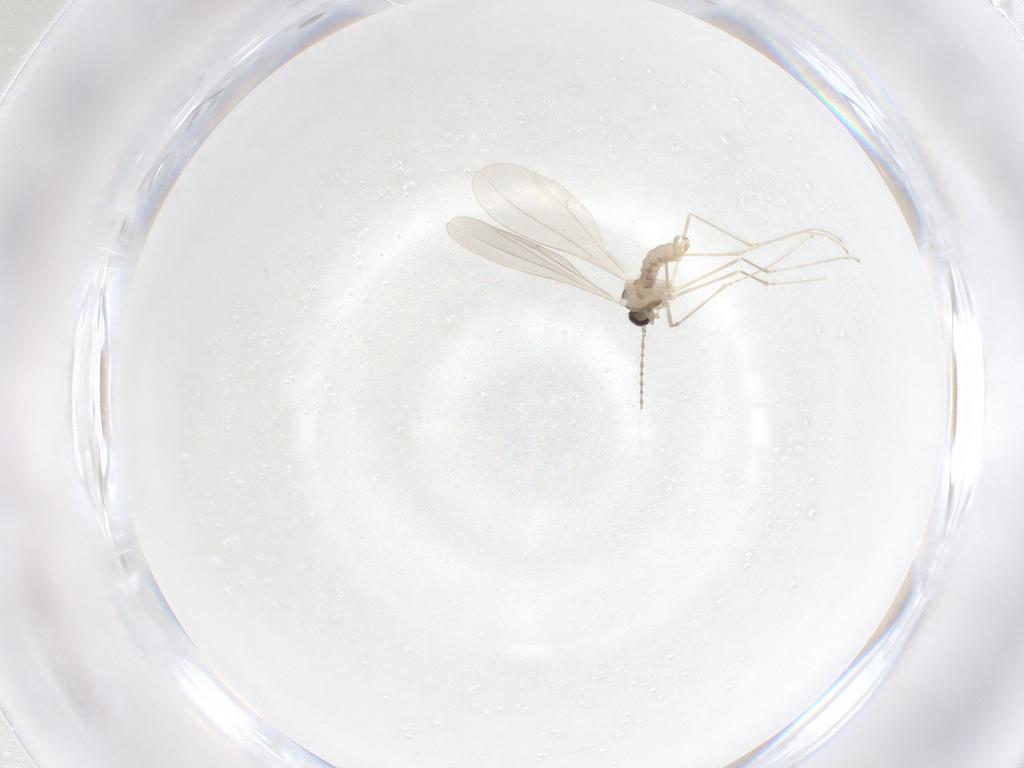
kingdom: Animalia
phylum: Arthropoda
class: Insecta
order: Diptera
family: Cecidomyiidae
